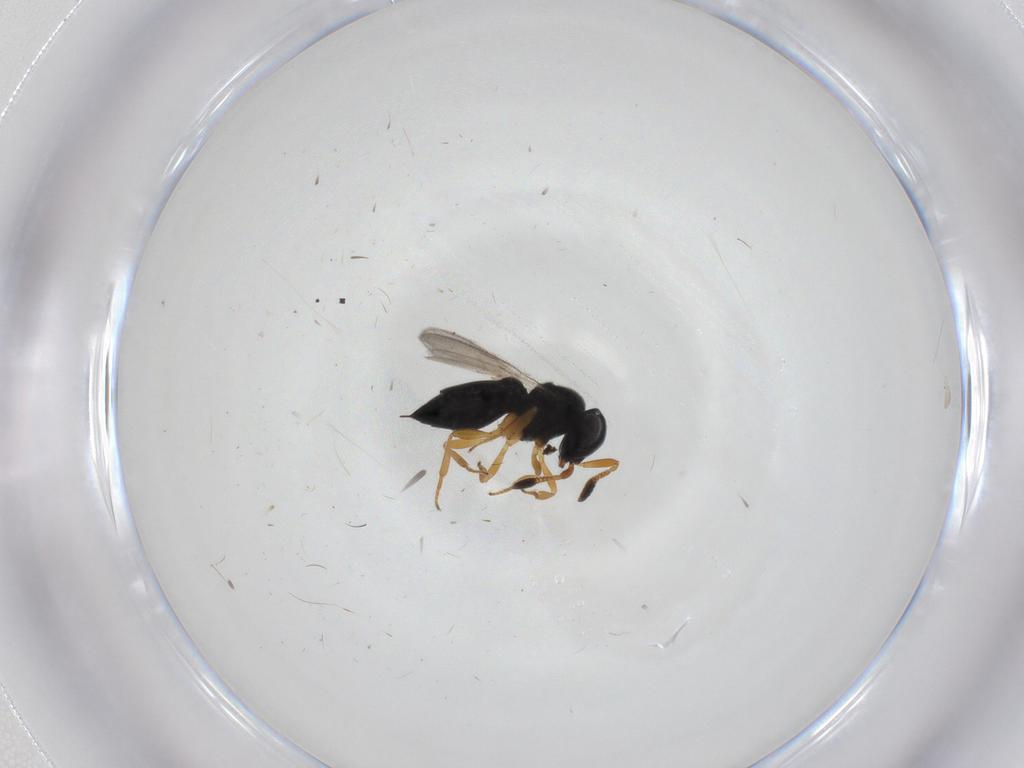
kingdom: Animalia
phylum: Arthropoda
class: Insecta
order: Hymenoptera
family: Scelionidae
